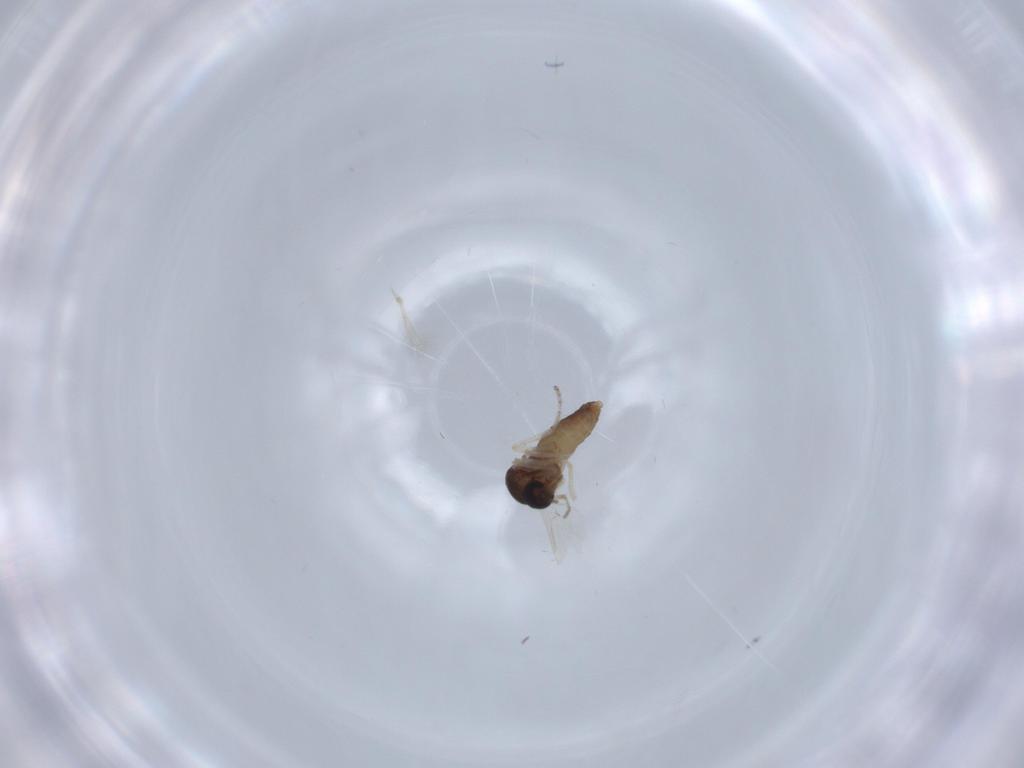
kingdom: Animalia
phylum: Arthropoda
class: Insecta
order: Diptera
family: Ceratopogonidae
